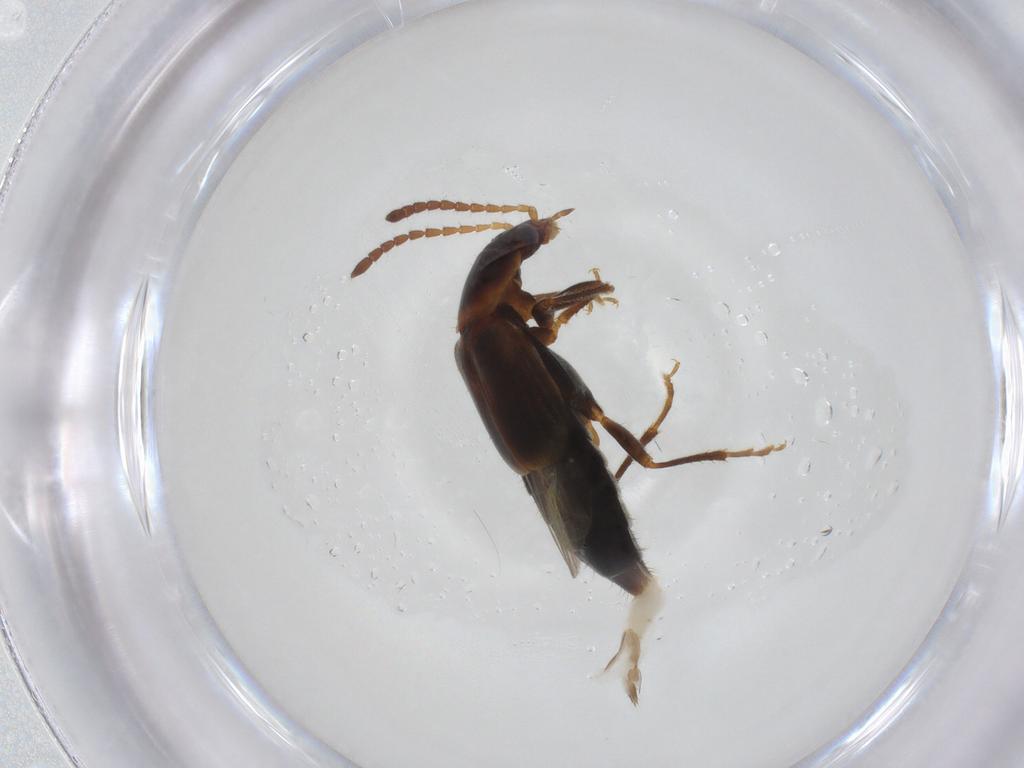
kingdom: Animalia
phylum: Arthropoda
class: Insecta
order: Coleoptera
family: Staphylinidae
